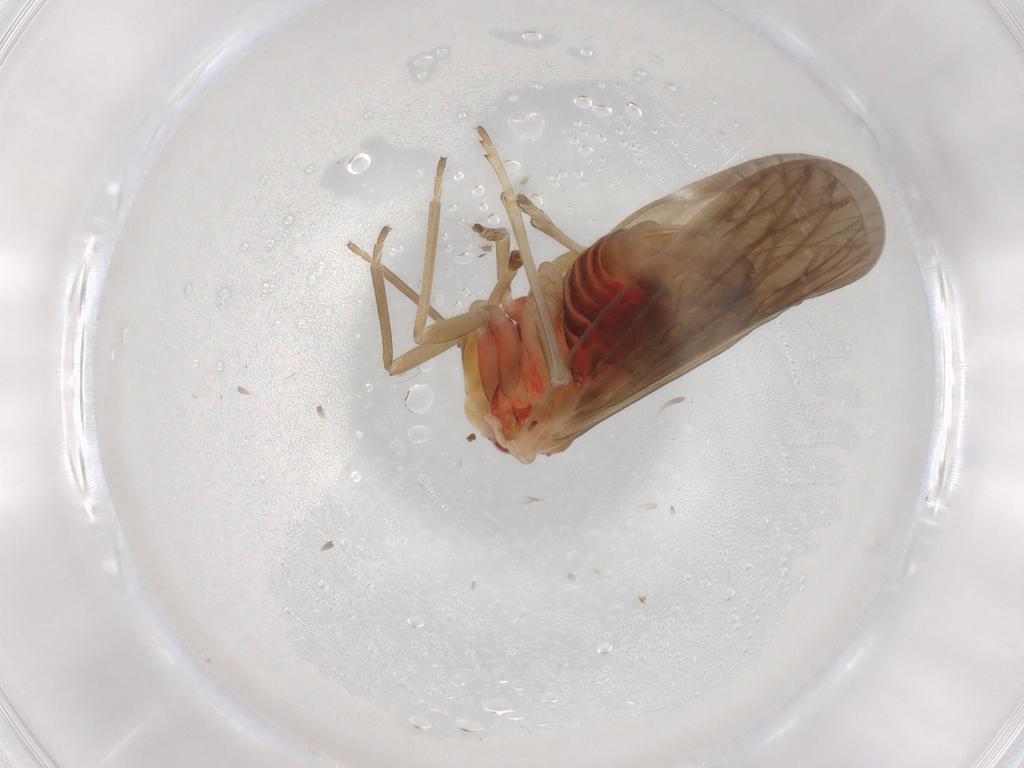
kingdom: Animalia
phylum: Arthropoda
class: Insecta
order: Hemiptera
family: Derbidae
